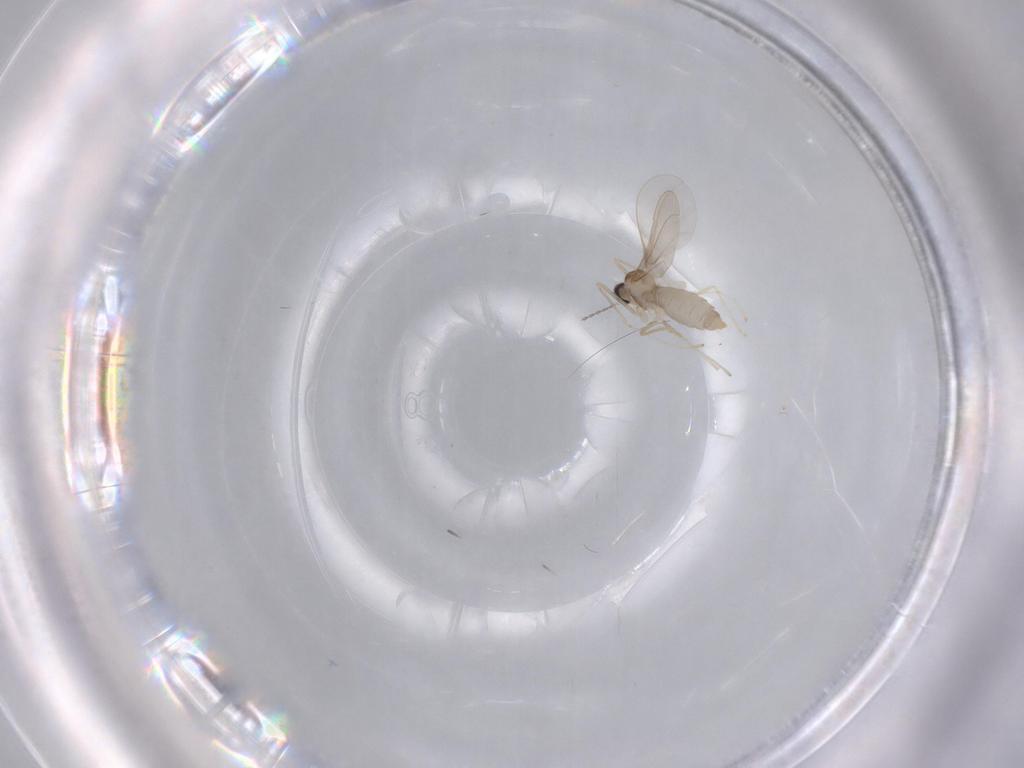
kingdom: Animalia
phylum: Arthropoda
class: Insecta
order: Diptera
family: Cecidomyiidae
